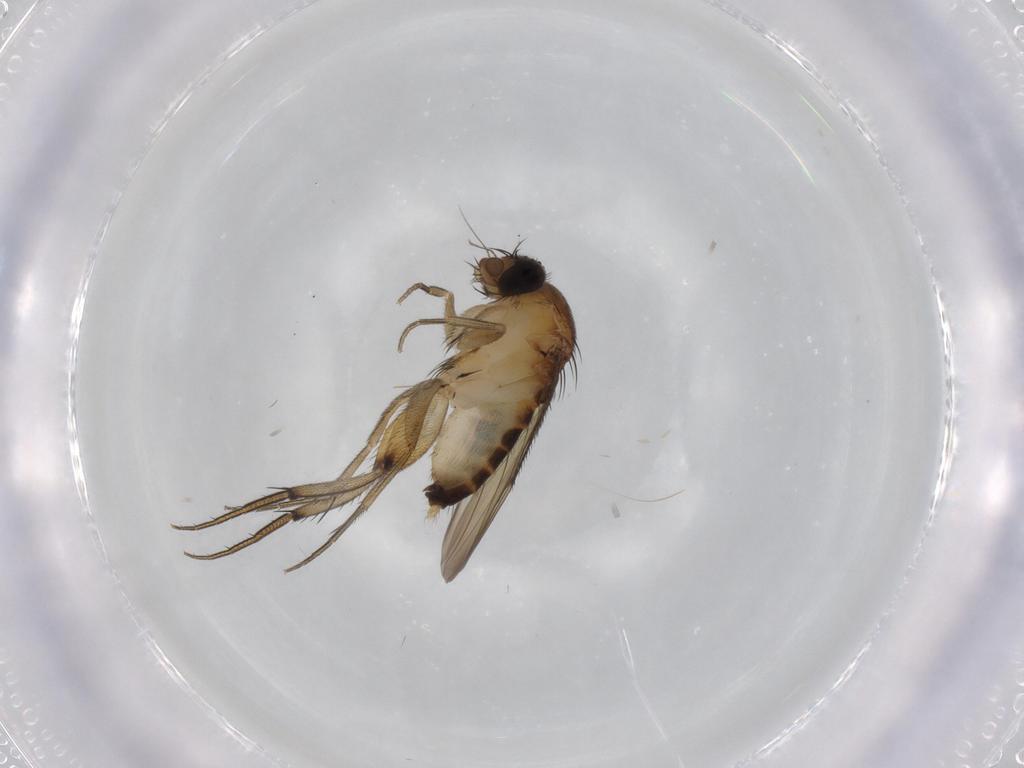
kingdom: Animalia
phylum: Arthropoda
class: Insecta
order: Diptera
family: Phoridae
